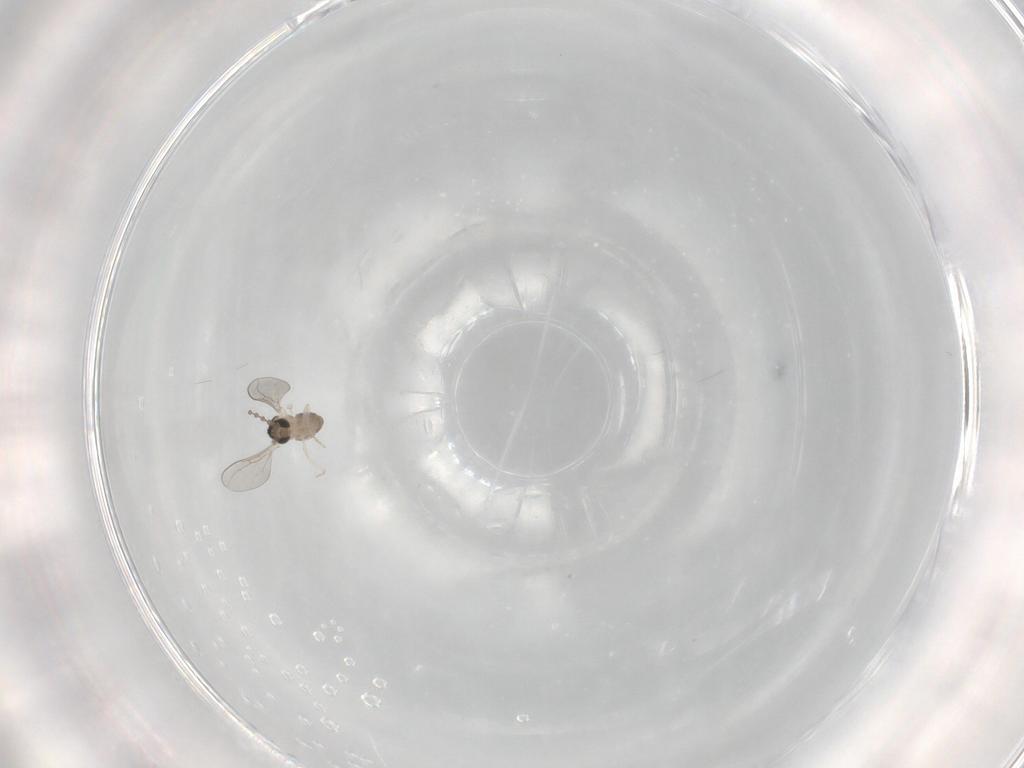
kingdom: Animalia
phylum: Arthropoda
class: Insecta
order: Diptera
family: Cecidomyiidae
